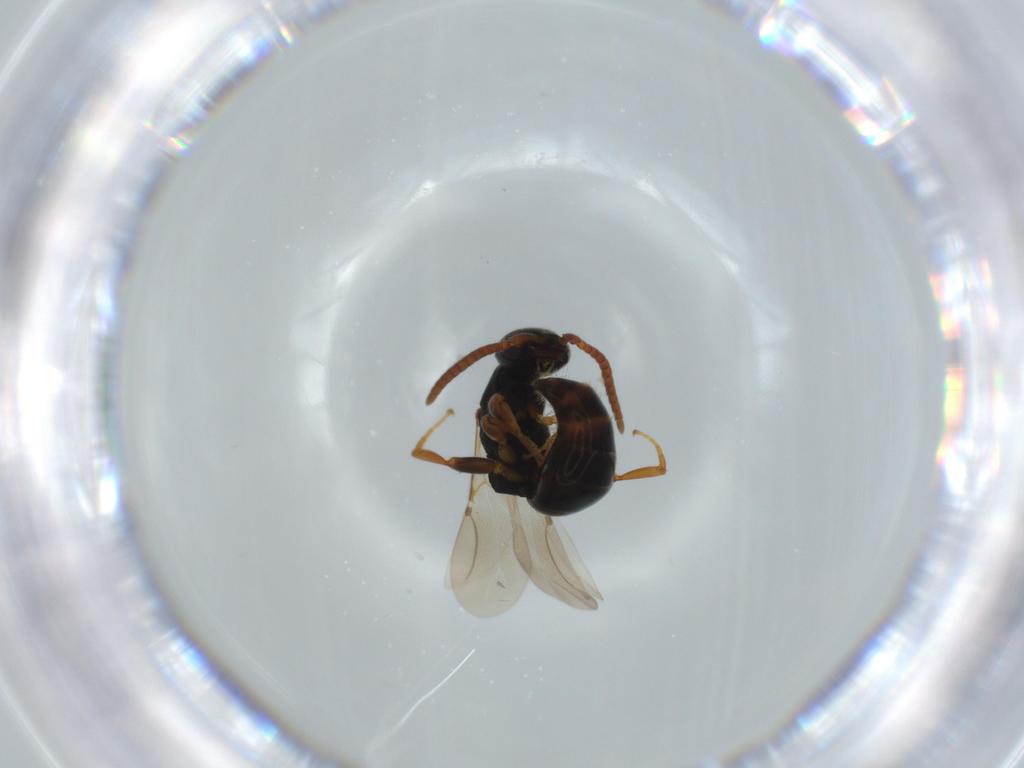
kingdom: Animalia
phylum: Arthropoda
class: Insecta
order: Hymenoptera
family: Bethylidae
